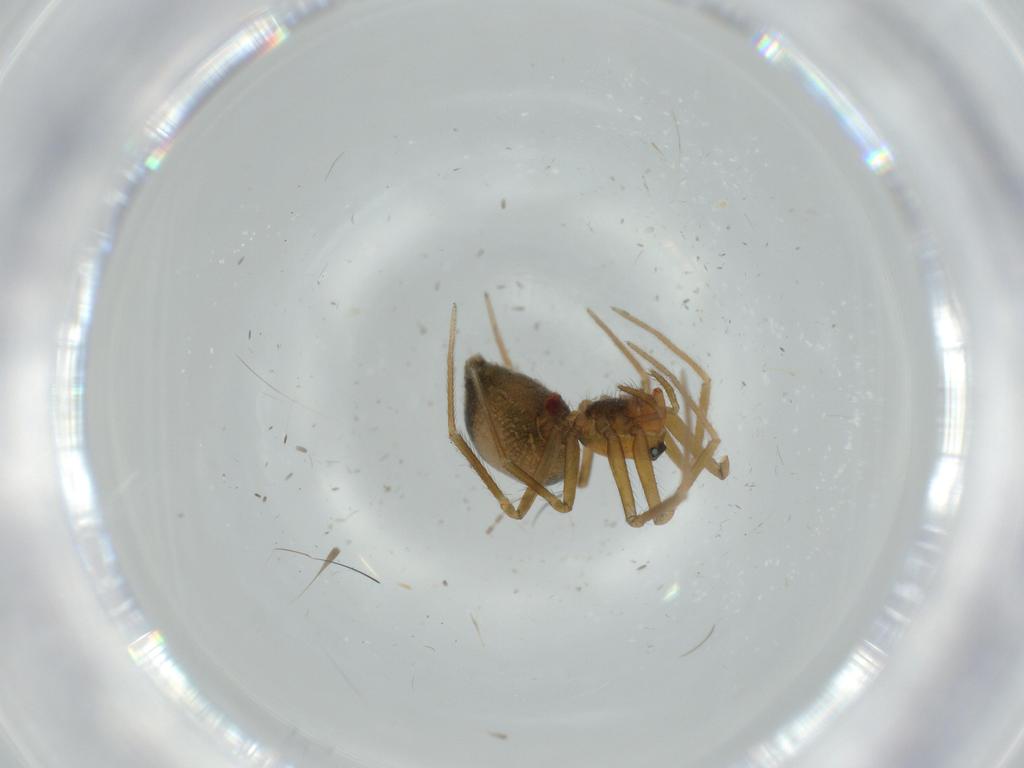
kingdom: Animalia
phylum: Arthropoda
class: Arachnida
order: Araneae
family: Linyphiidae
